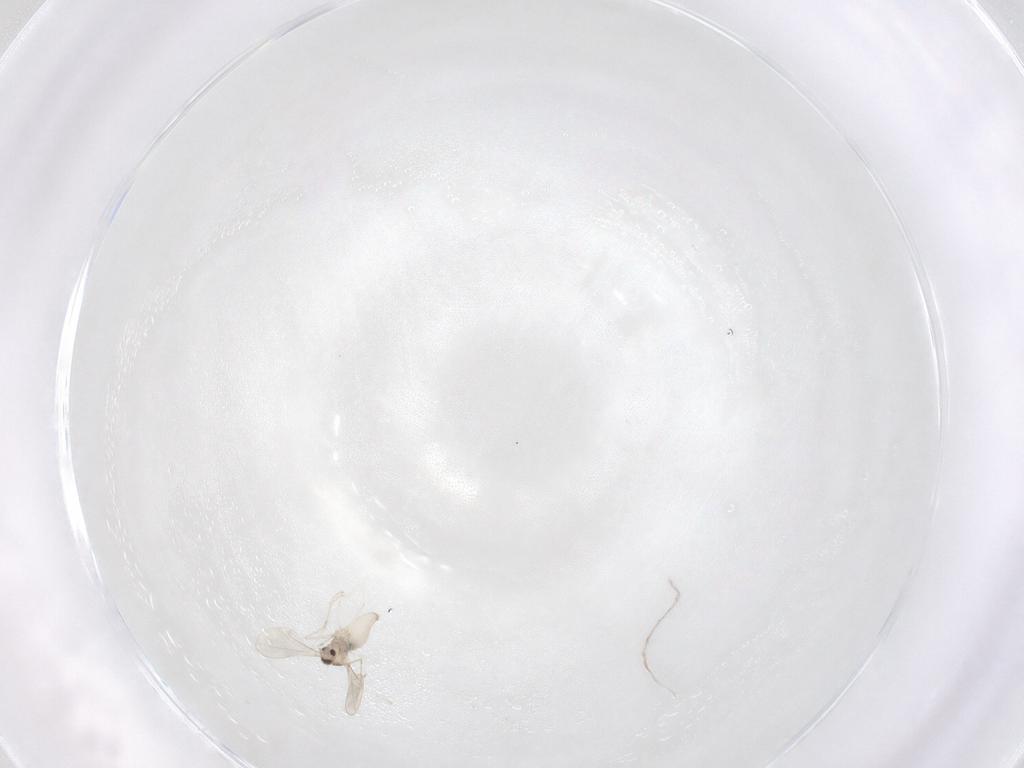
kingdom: Animalia
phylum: Arthropoda
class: Insecta
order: Diptera
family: Cecidomyiidae
